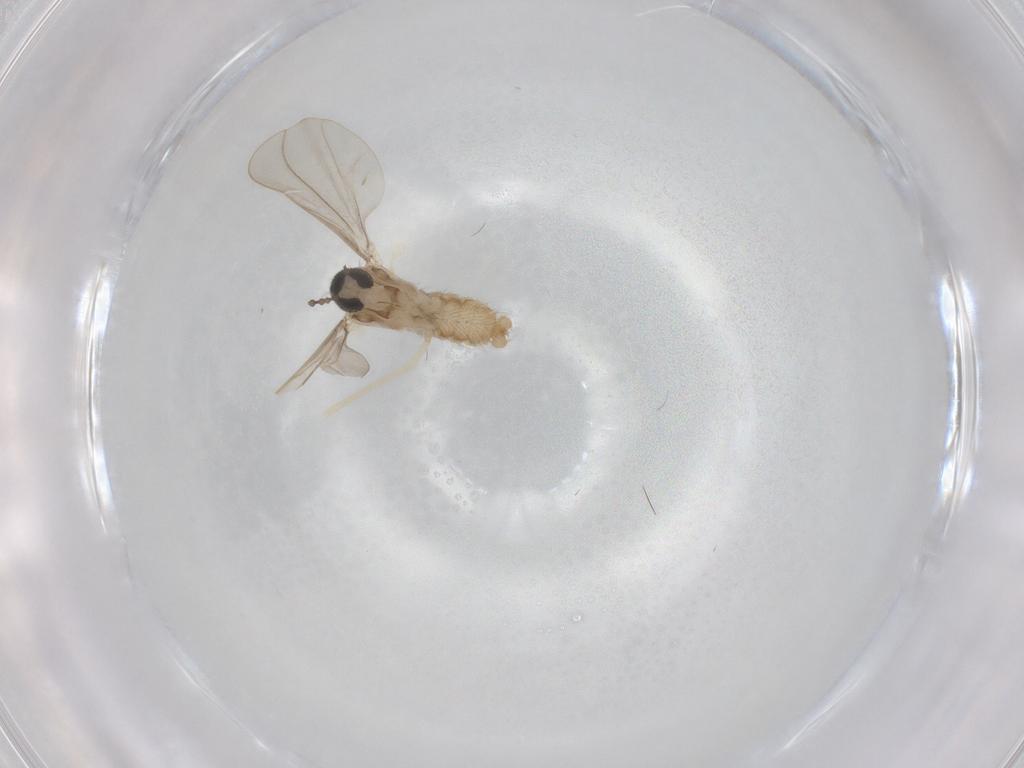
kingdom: Animalia
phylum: Arthropoda
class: Insecta
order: Diptera
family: Cecidomyiidae
